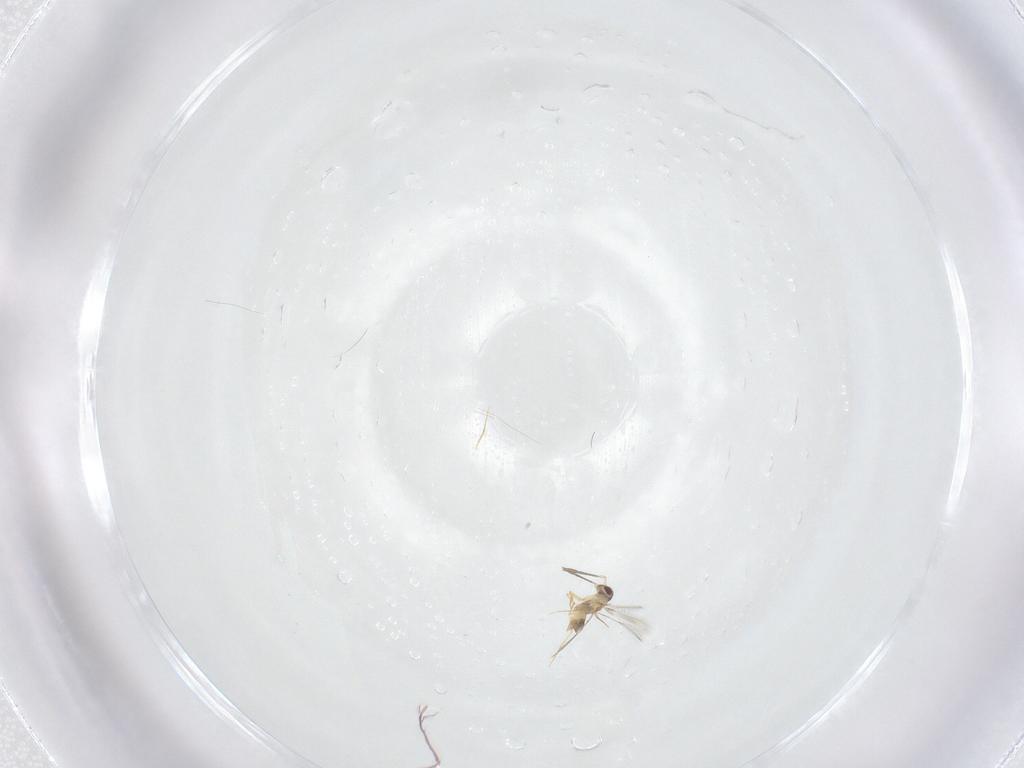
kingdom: Animalia
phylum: Arthropoda
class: Insecta
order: Hymenoptera
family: Mymaridae
